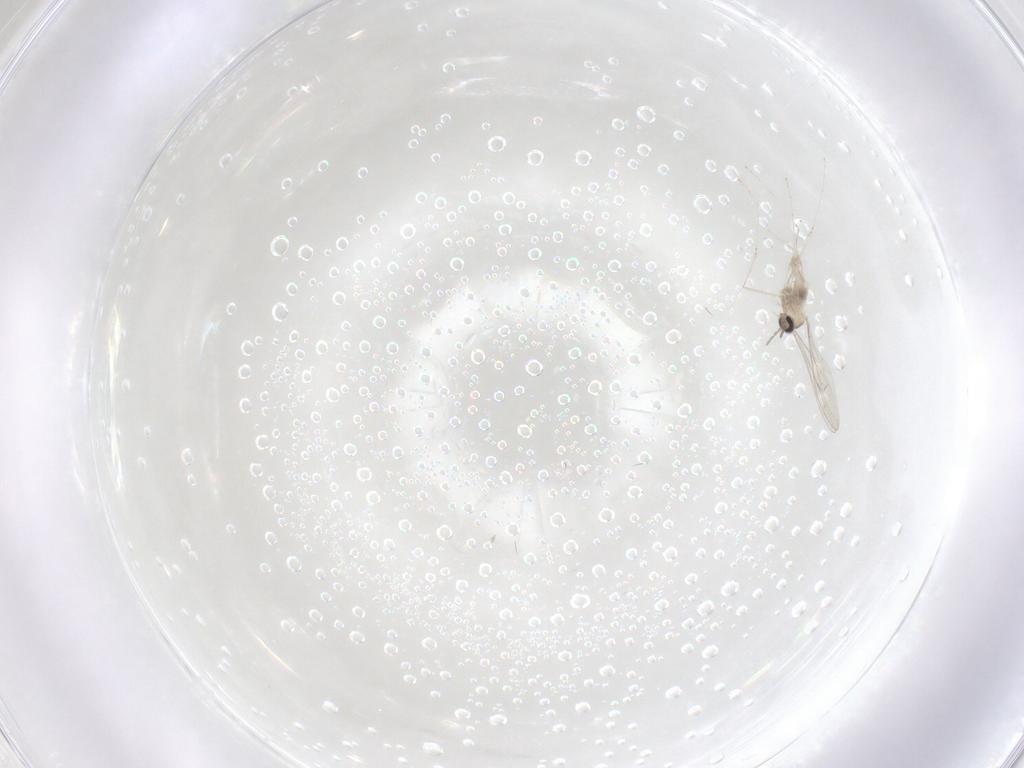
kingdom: Animalia
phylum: Arthropoda
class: Insecta
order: Diptera
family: Cecidomyiidae
